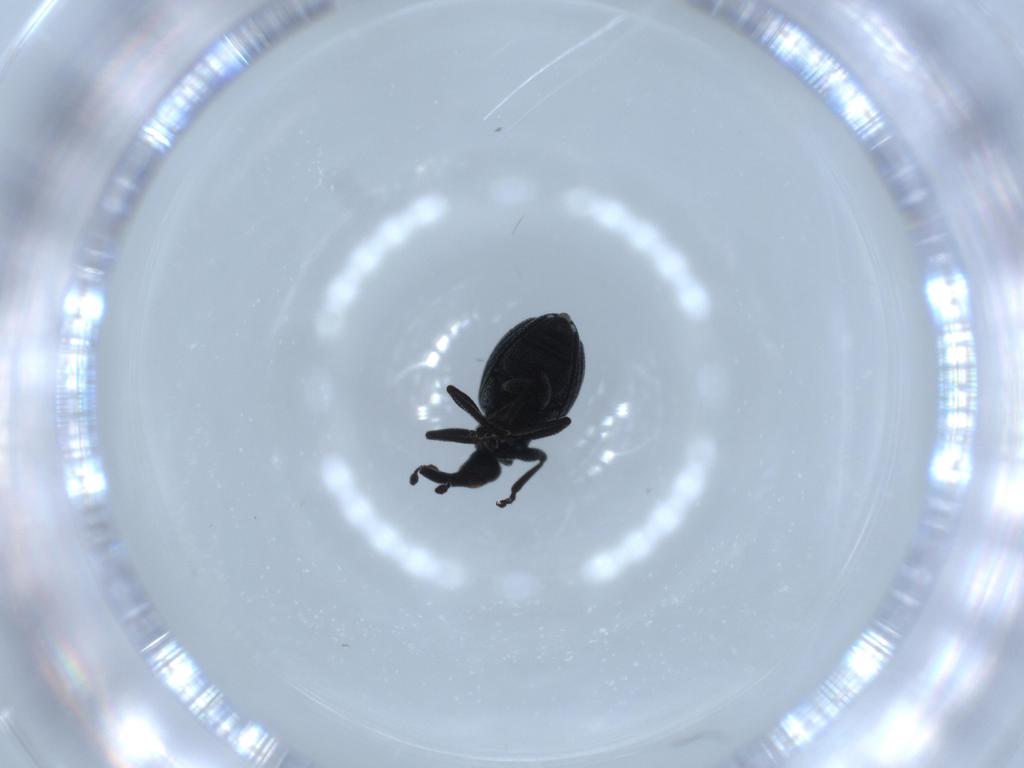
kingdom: Animalia
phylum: Arthropoda
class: Insecta
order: Coleoptera
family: Brentidae
